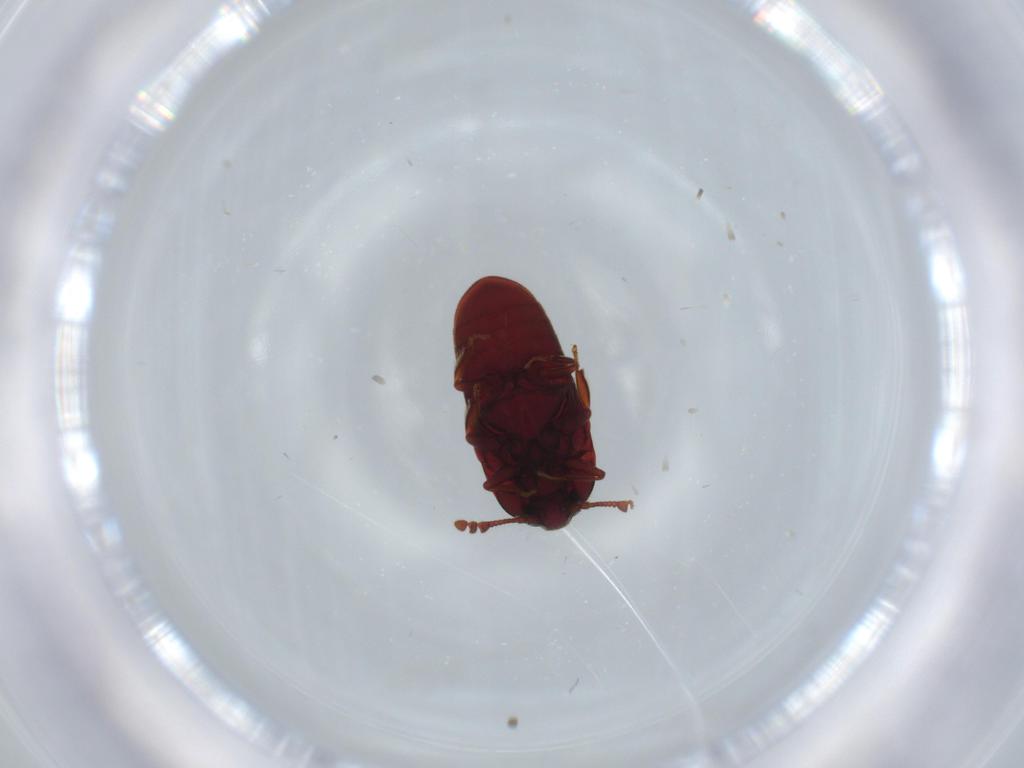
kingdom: Animalia
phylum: Arthropoda
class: Insecta
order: Coleoptera
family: Throscidae
